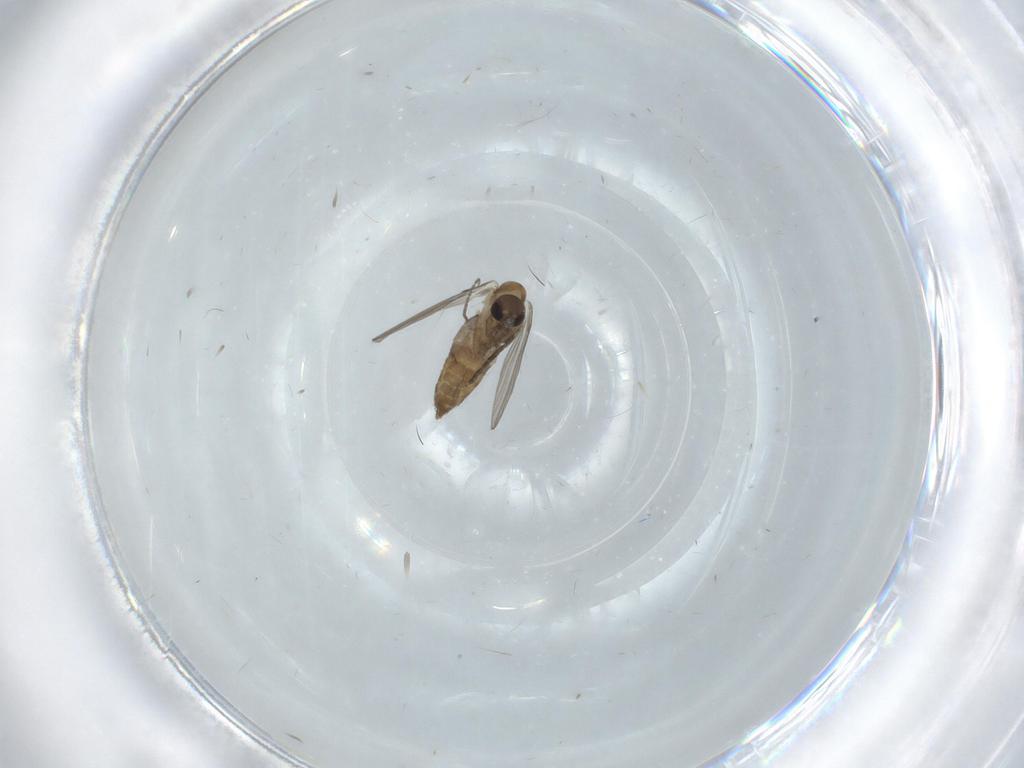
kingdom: Animalia
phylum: Arthropoda
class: Insecta
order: Diptera
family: Psychodidae
